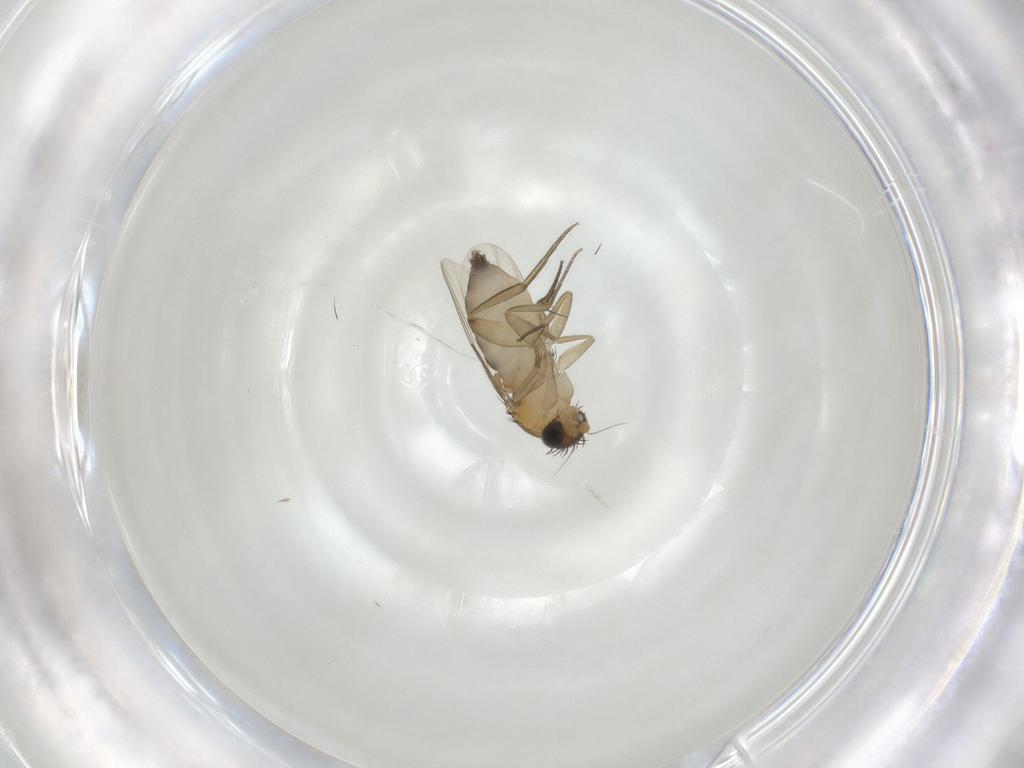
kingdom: Animalia
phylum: Arthropoda
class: Insecta
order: Diptera
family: Phoridae
